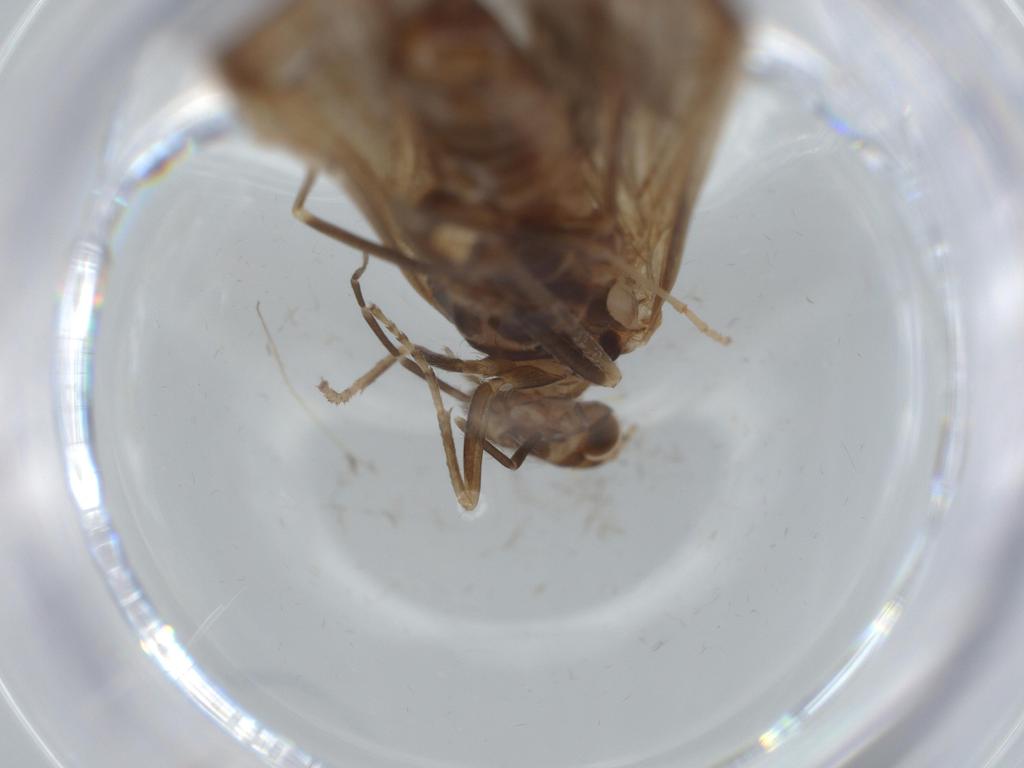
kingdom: Animalia
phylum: Arthropoda
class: Insecta
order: Trichoptera
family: Leptoceridae
